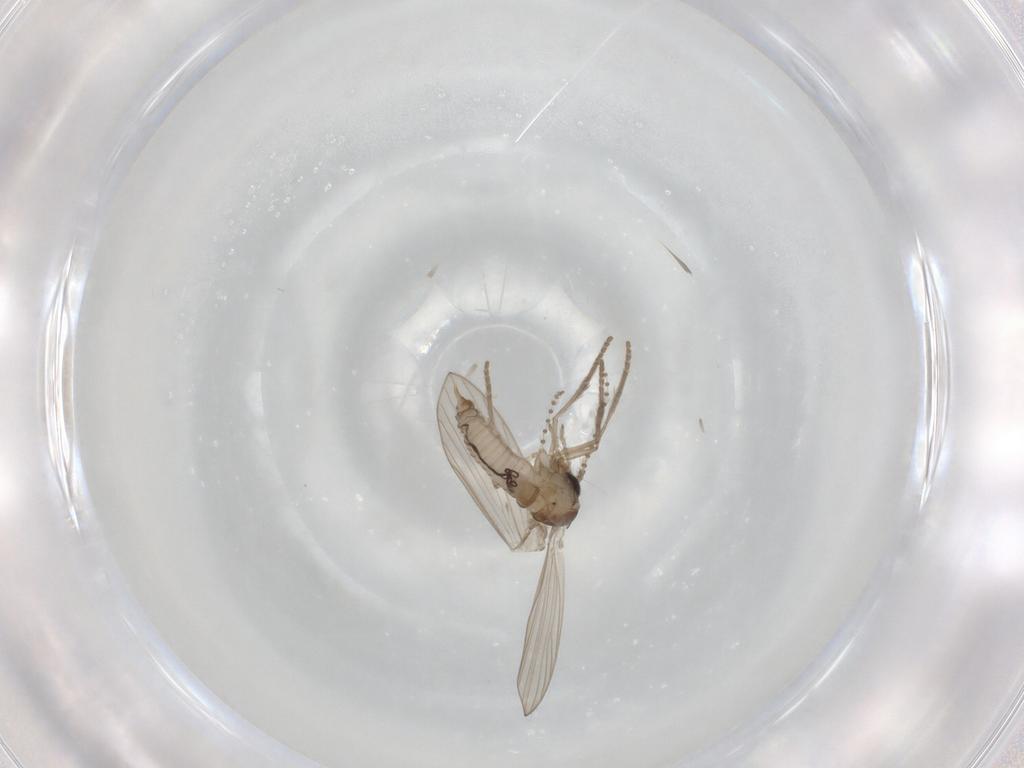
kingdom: Animalia
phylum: Arthropoda
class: Insecta
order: Diptera
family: Psychodidae
